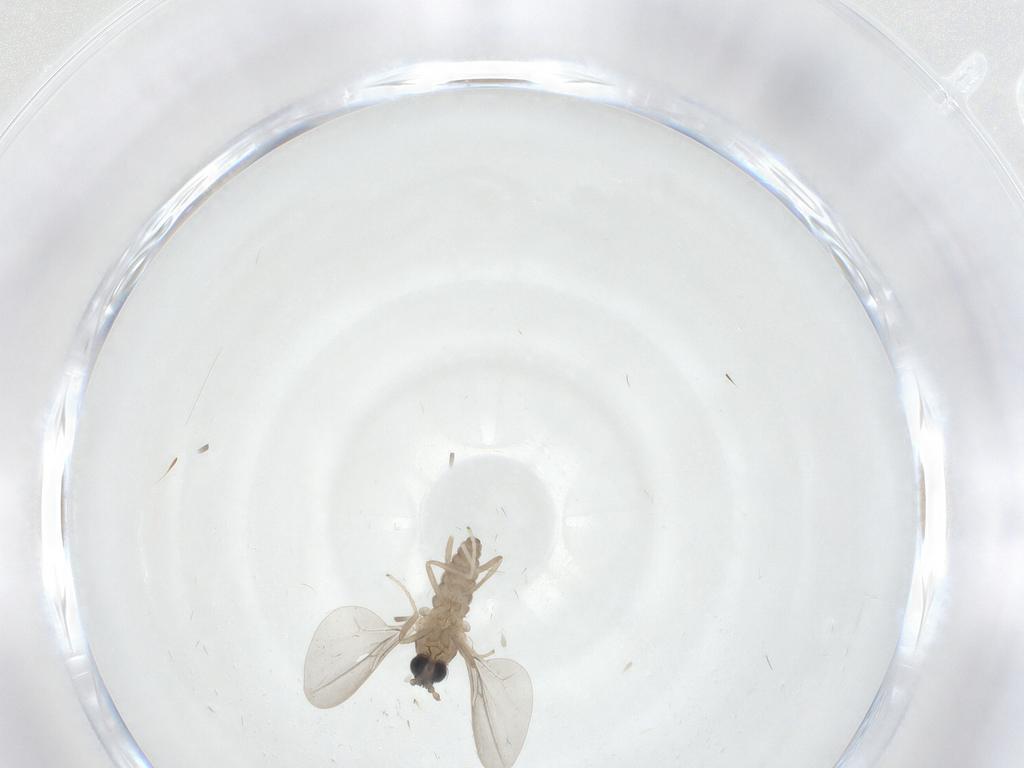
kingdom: Animalia
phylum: Arthropoda
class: Insecta
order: Diptera
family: Cecidomyiidae
